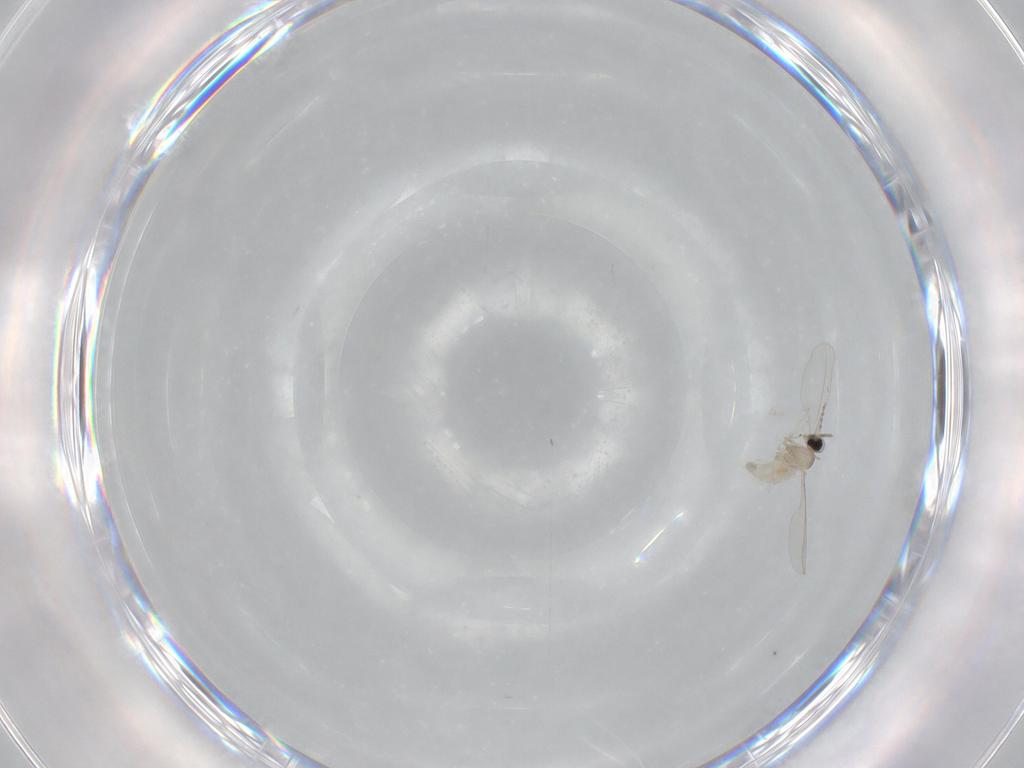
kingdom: Animalia
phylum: Arthropoda
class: Insecta
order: Diptera
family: Cecidomyiidae
